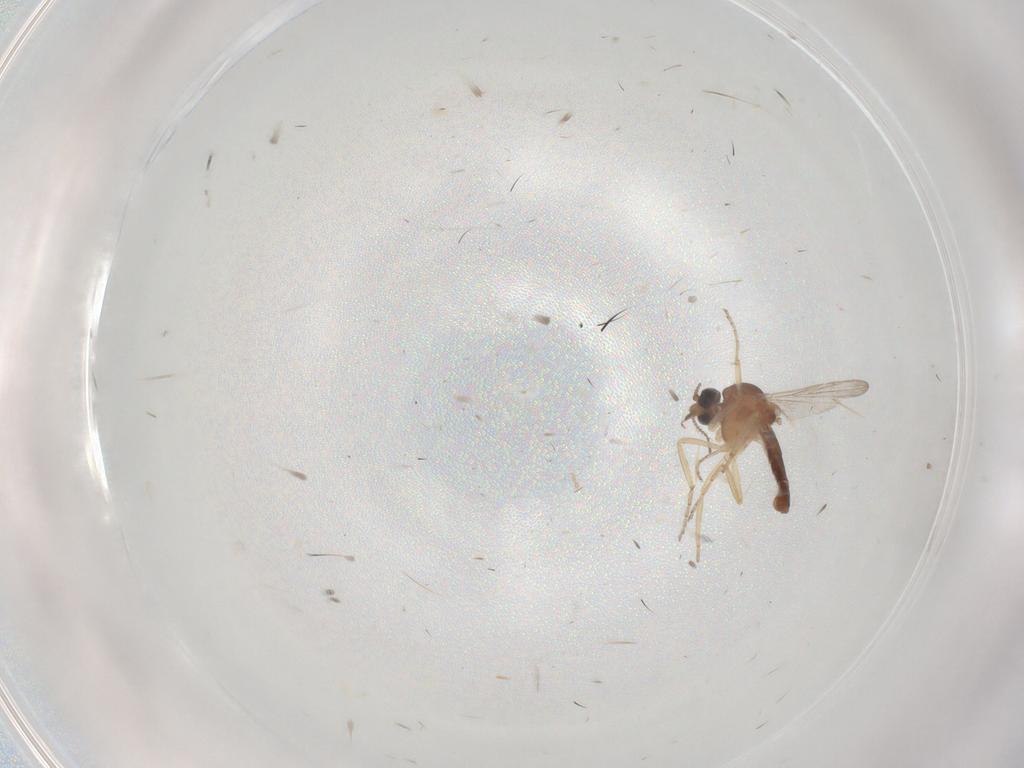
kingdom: Animalia
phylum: Arthropoda
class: Insecta
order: Diptera
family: Ceratopogonidae
